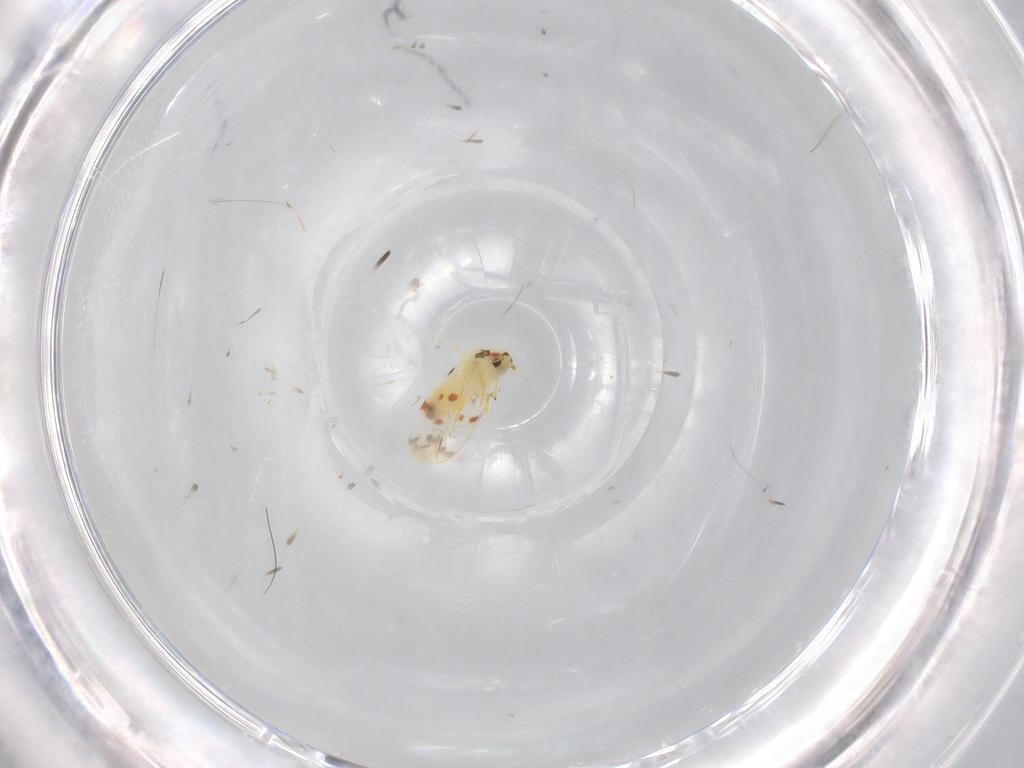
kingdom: Animalia
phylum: Arthropoda
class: Insecta
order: Hemiptera
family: Aleyrodidae
